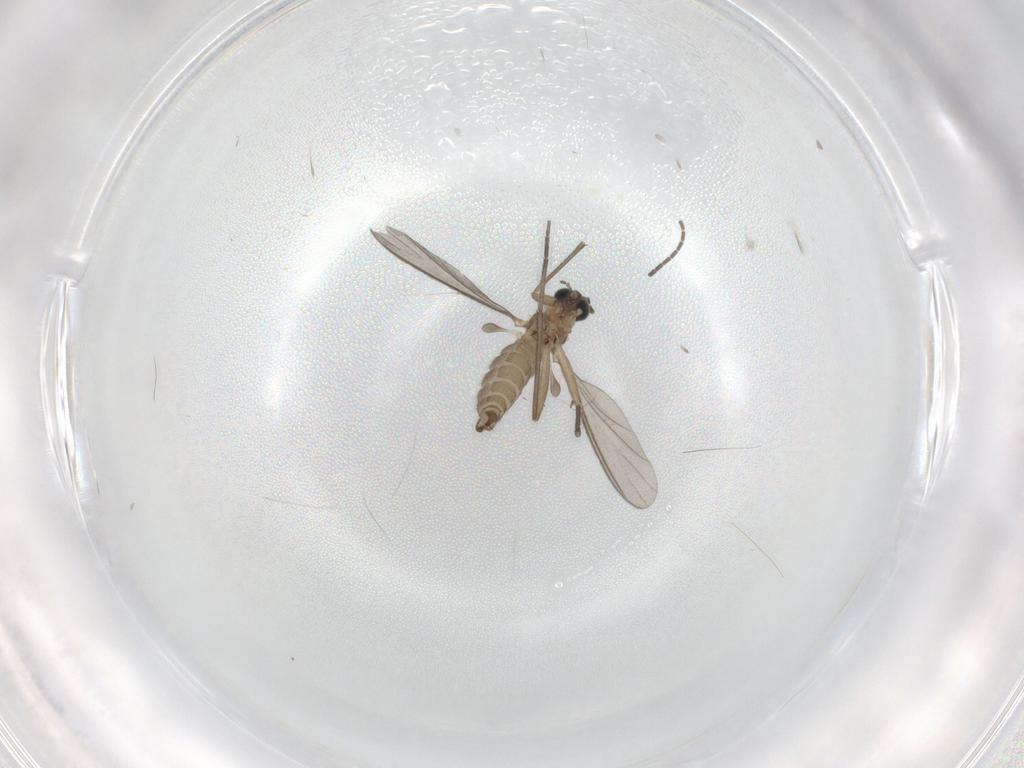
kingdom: Animalia
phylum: Arthropoda
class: Insecta
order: Diptera
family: Sciaridae
